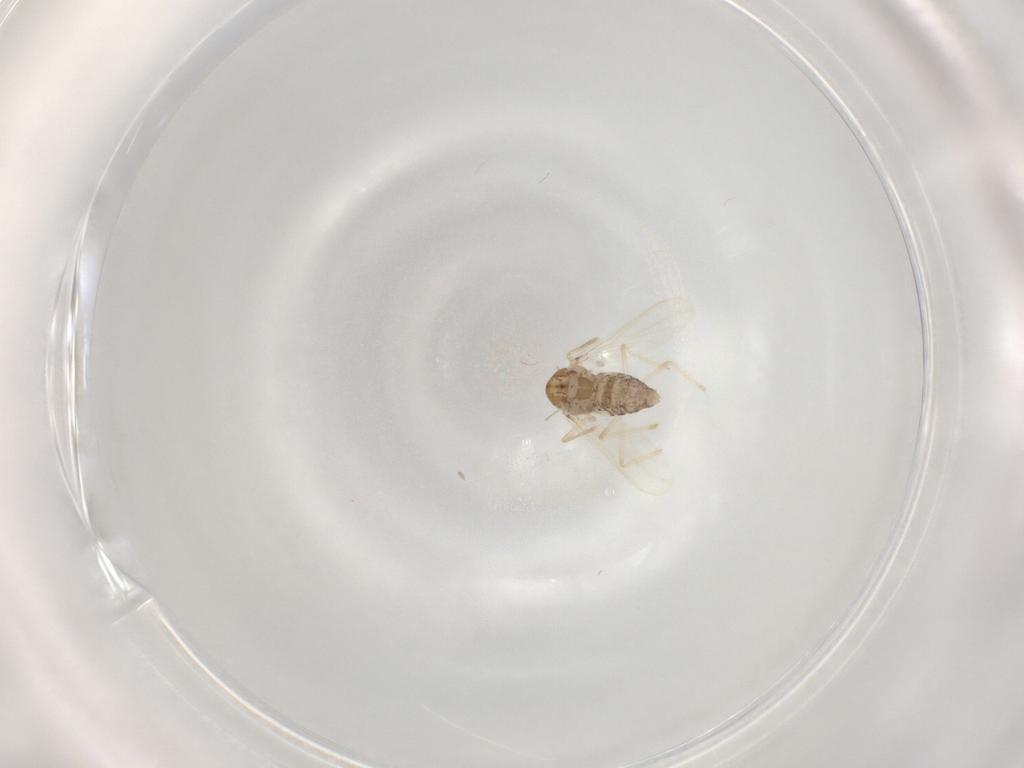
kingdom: Animalia
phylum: Arthropoda
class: Insecta
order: Diptera
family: Chironomidae
